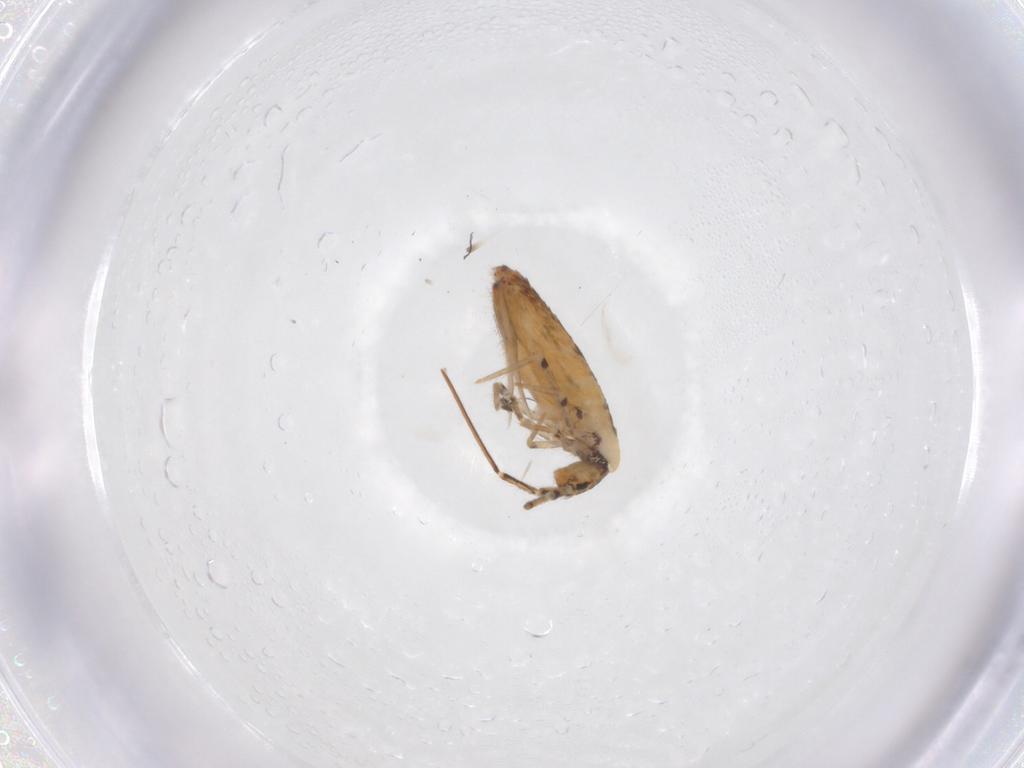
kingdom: Animalia
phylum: Arthropoda
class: Collembola
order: Entomobryomorpha
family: Entomobryidae
